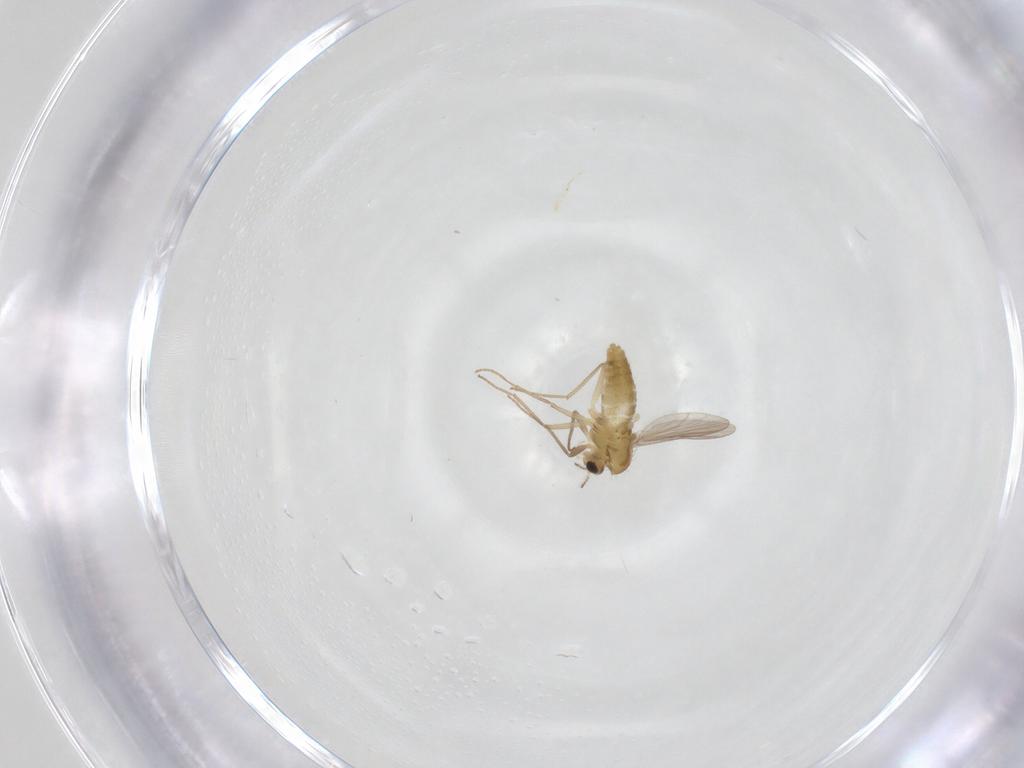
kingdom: Animalia
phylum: Arthropoda
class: Insecta
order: Diptera
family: Sciaridae
